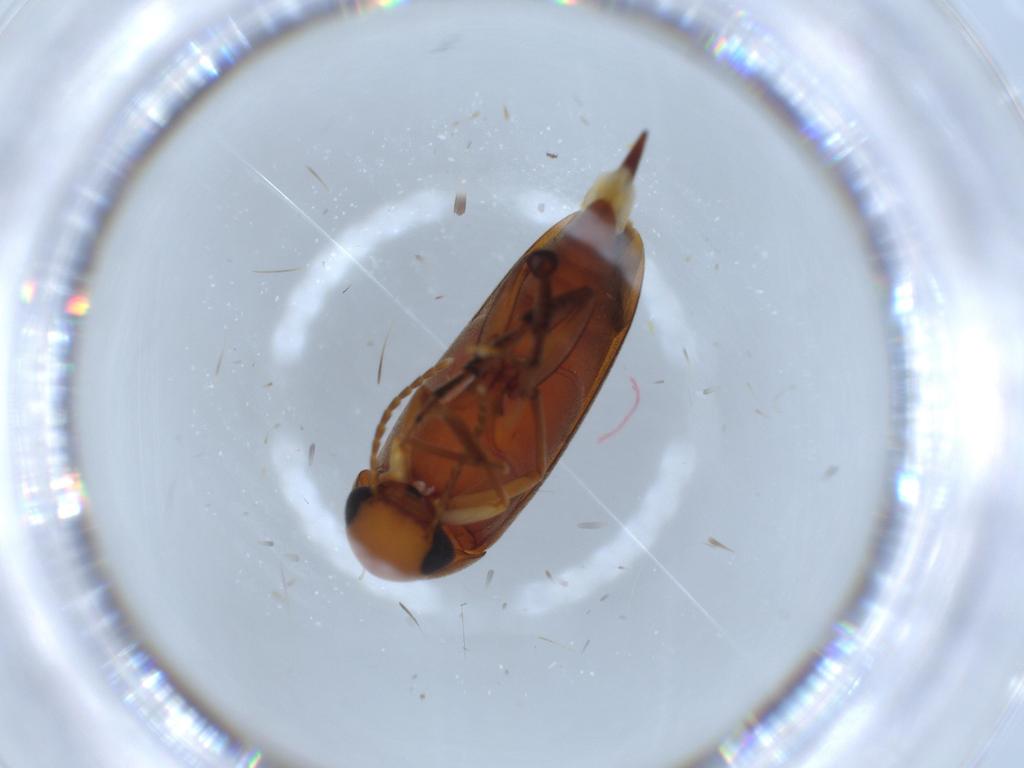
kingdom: Animalia
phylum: Arthropoda
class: Insecta
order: Coleoptera
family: Mordellidae
